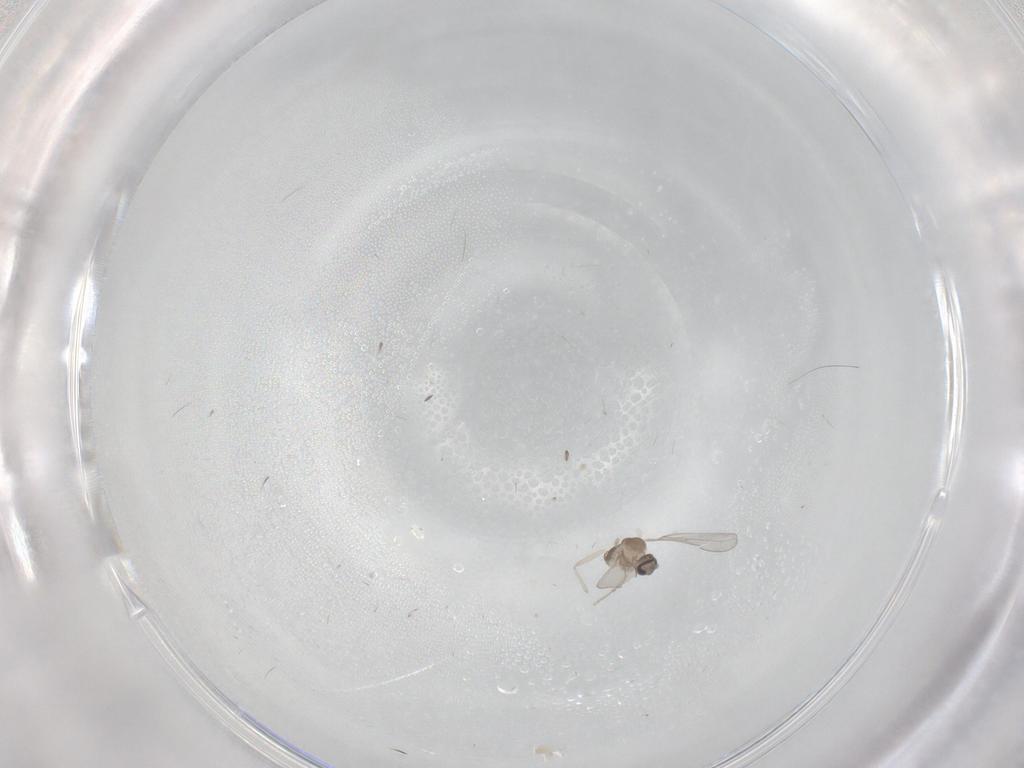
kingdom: Animalia
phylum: Arthropoda
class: Insecta
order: Diptera
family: Cecidomyiidae
